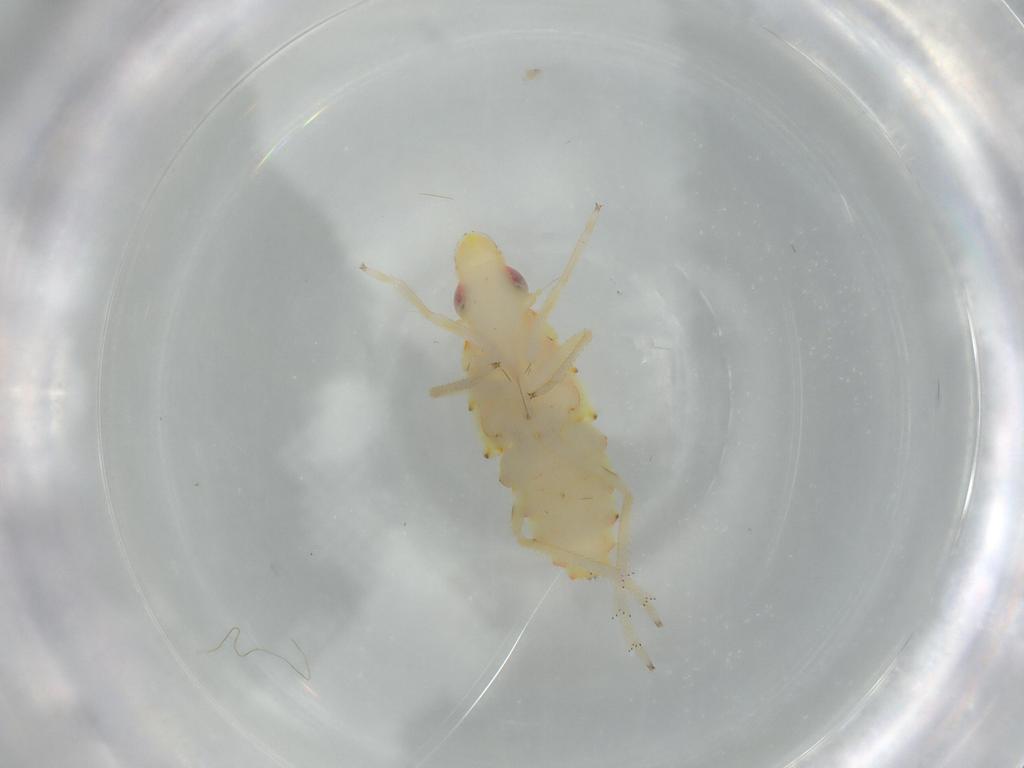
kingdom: Animalia
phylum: Arthropoda
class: Insecta
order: Hemiptera
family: Tropiduchidae
